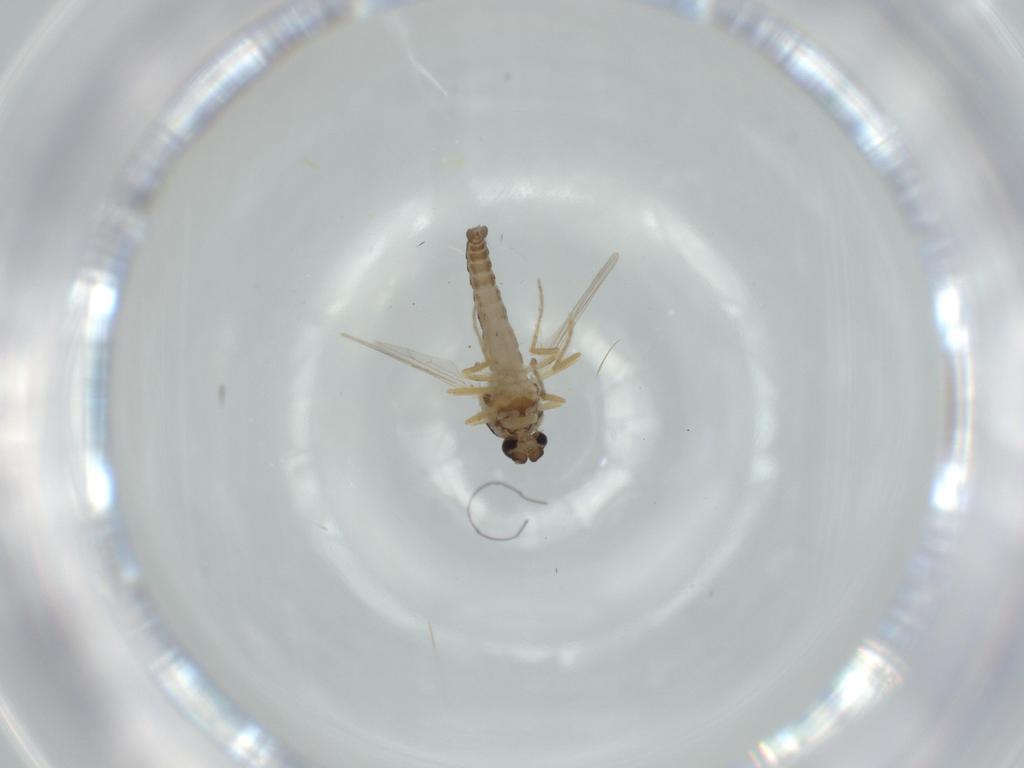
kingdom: Animalia
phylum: Arthropoda
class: Insecta
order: Diptera
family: Ceratopogonidae
